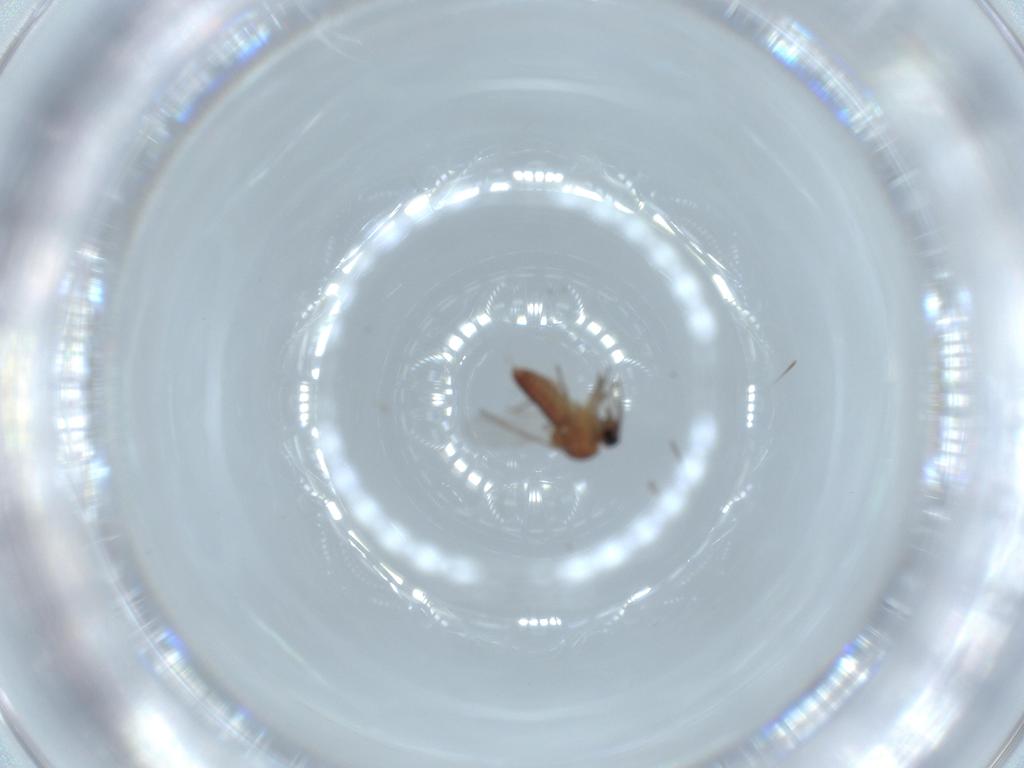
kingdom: Animalia
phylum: Arthropoda
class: Insecta
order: Diptera
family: Ceratopogonidae
